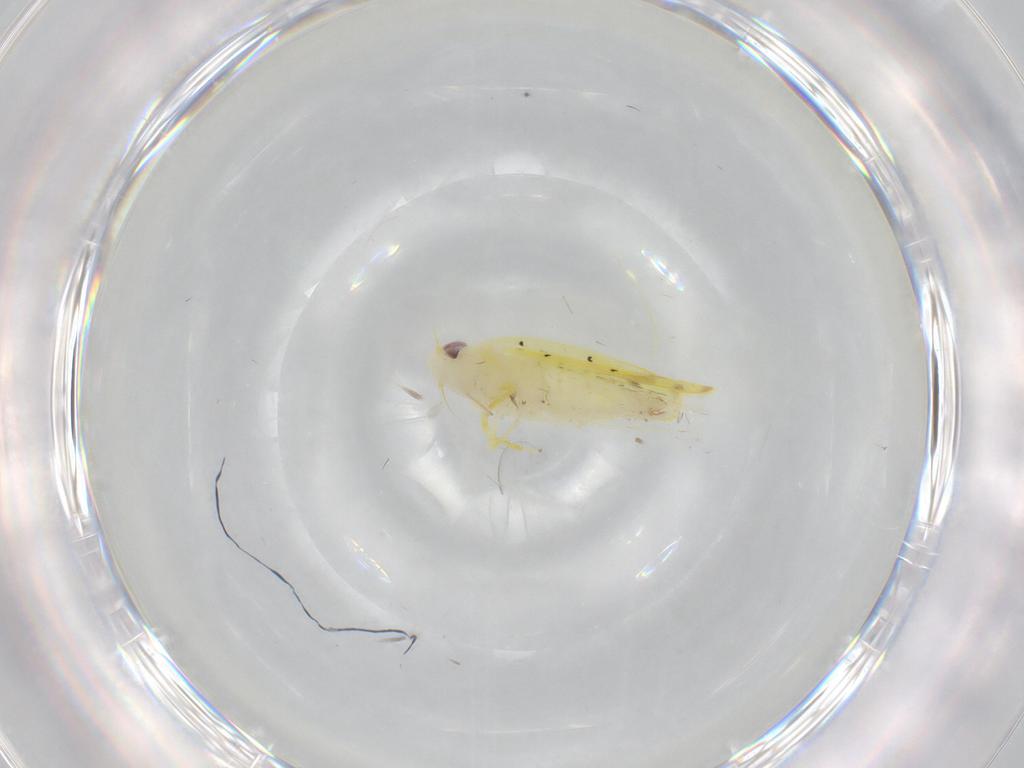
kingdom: Animalia
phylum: Arthropoda
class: Insecta
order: Hemiptera
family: Cicadellidae
